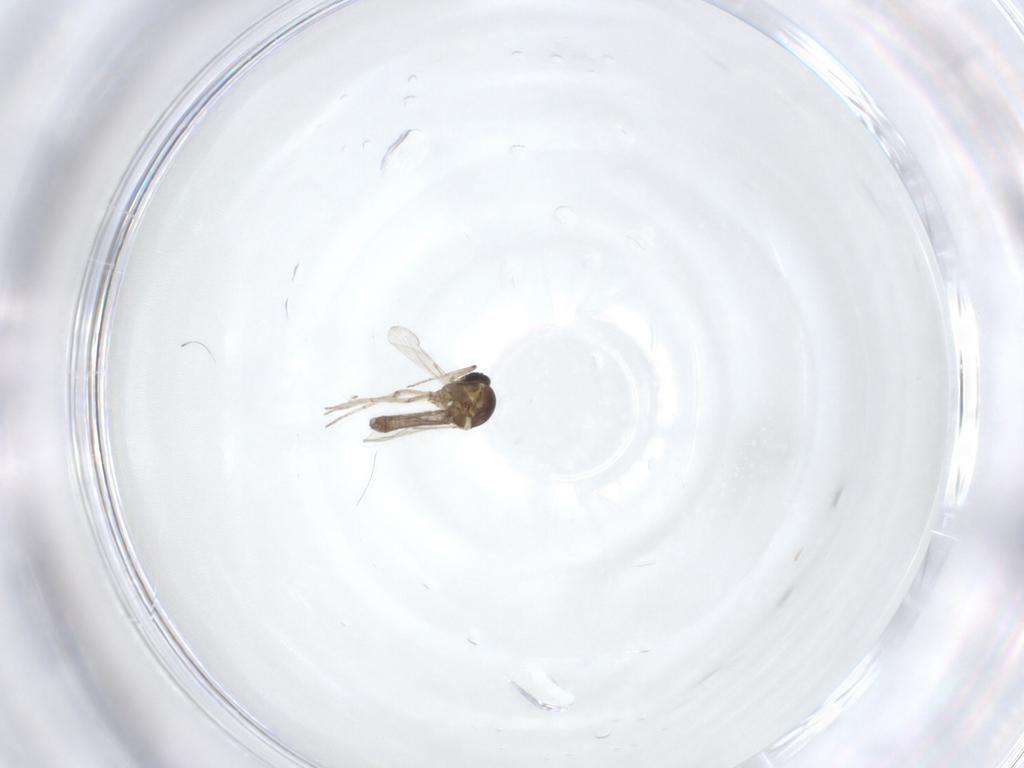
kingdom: Animalia
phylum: Arthropoda
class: Insecta
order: Diptera
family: Ceratopogonidae
